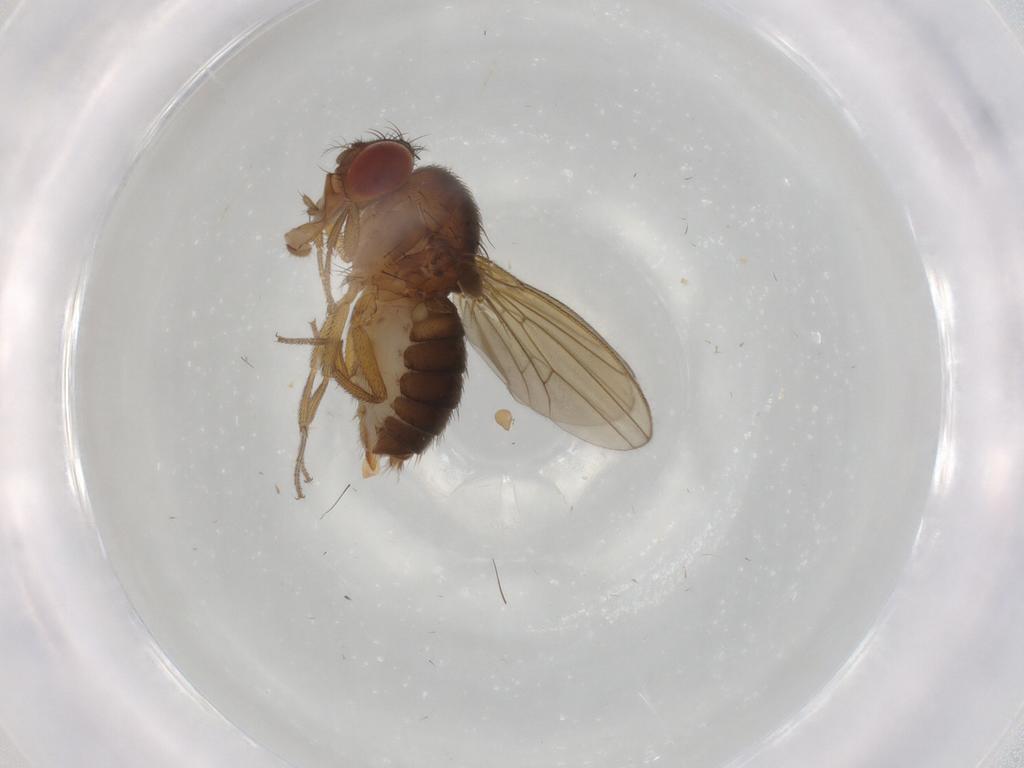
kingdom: Animalia
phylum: Arthropoda
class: Insecta
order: Diptera
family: Drosophilidae
